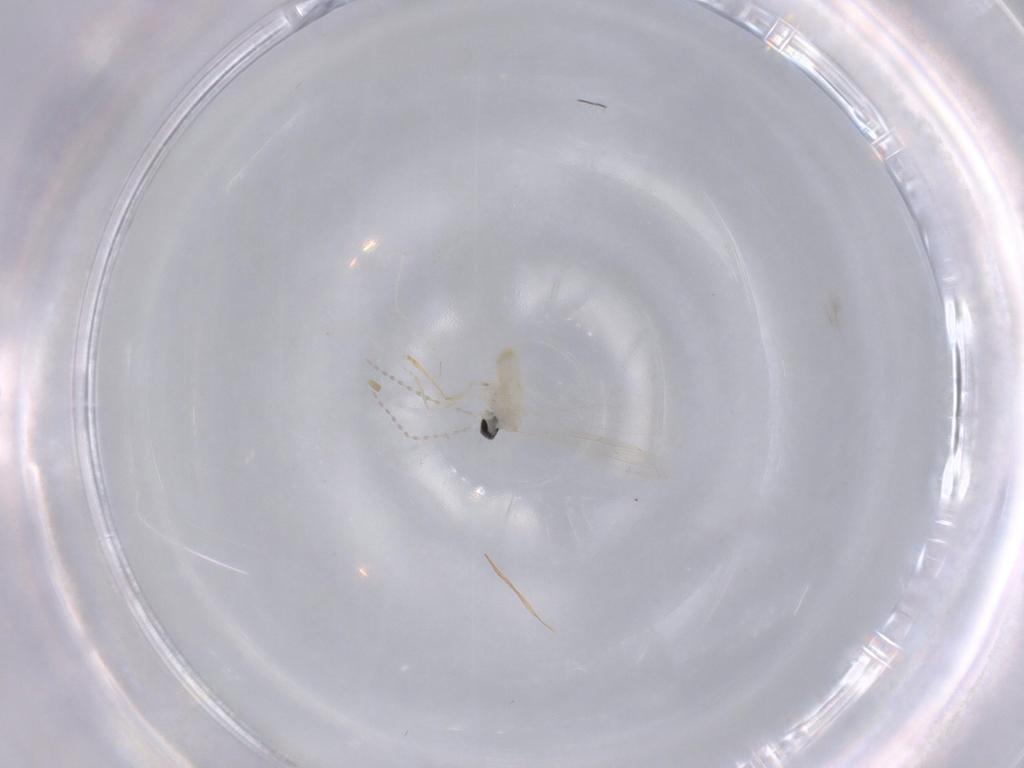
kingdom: Animalia
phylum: Arthropoda
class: Insecta
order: Diptera
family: Cecidomyiidae
